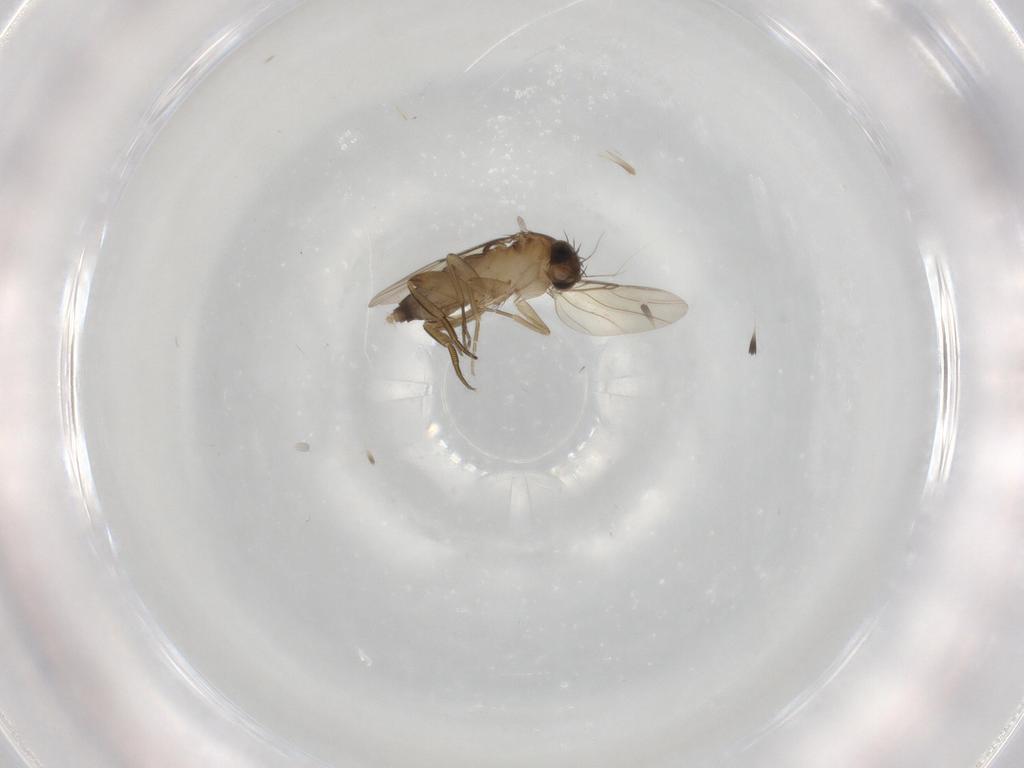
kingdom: Animalia
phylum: Arthropoda
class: Insecta
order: Diptera
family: Phoridae
